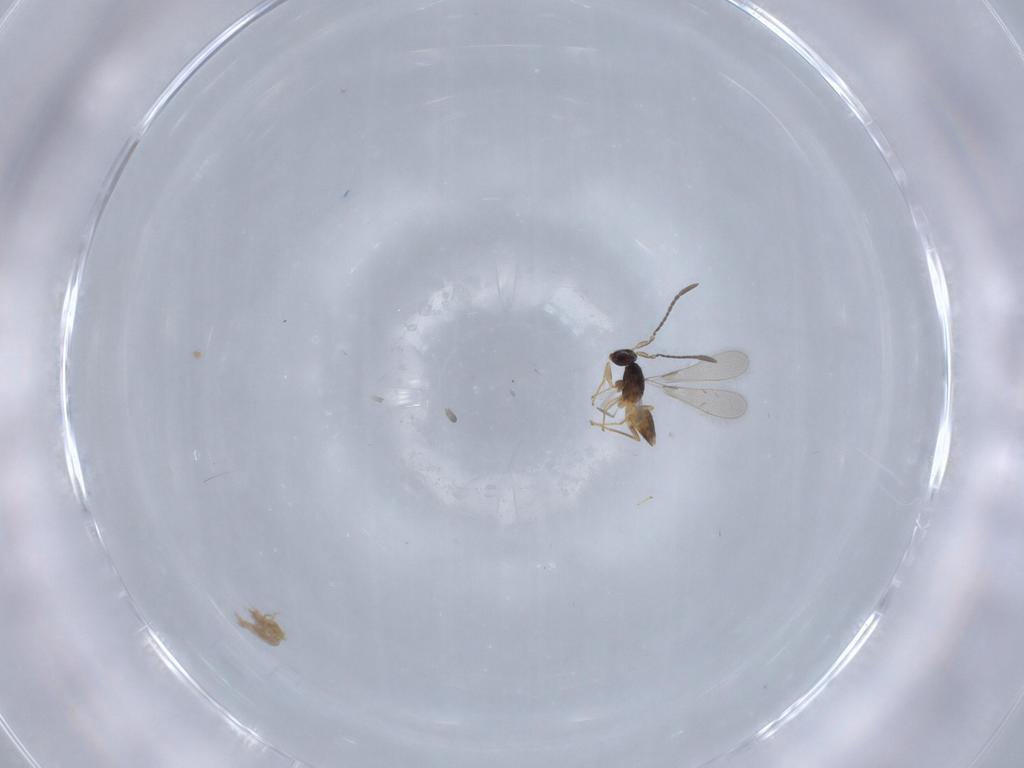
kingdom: Animalia
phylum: Arthropoda
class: Insecta
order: Hymenoptera
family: Mymaridae
